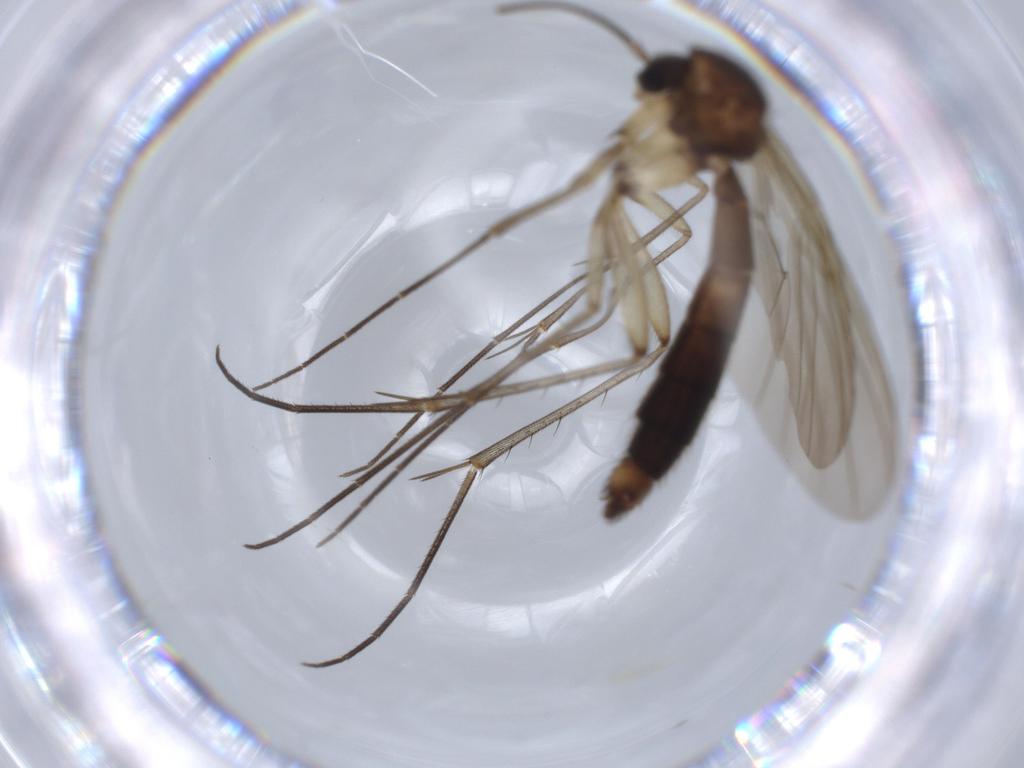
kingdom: Animalia
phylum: Arthropoda
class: Insecta
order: Diptera
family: Mycetophilidae
